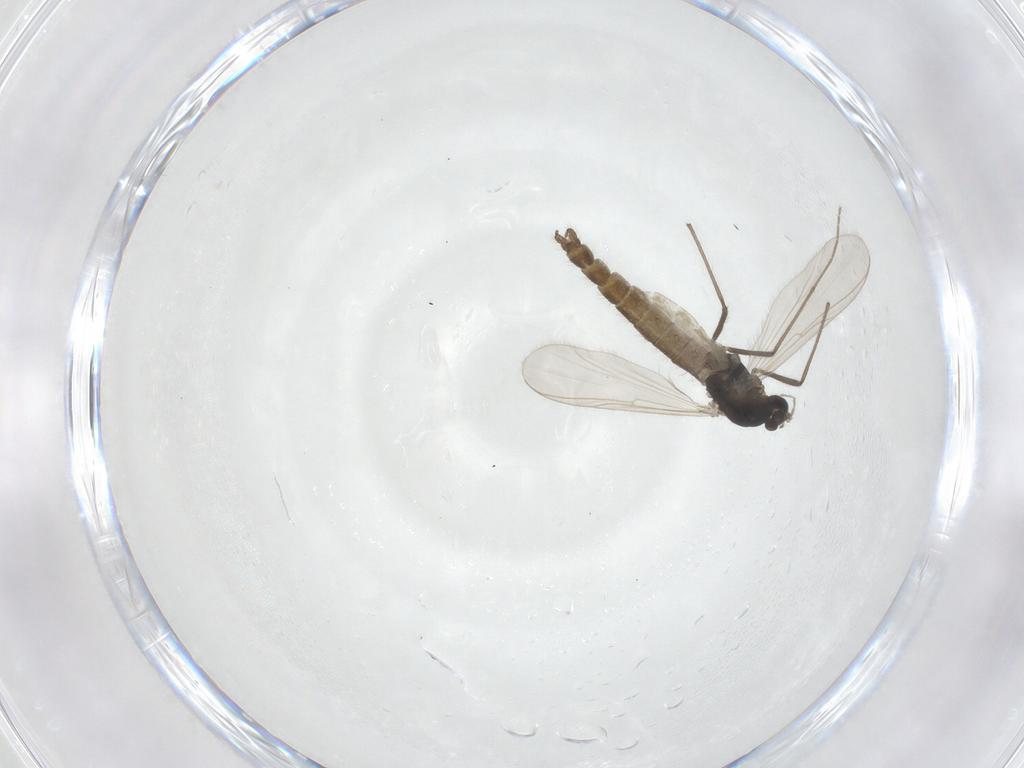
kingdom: Animalia
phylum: Arthropoda
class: Insecta
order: Diptera
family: Chironomidae
